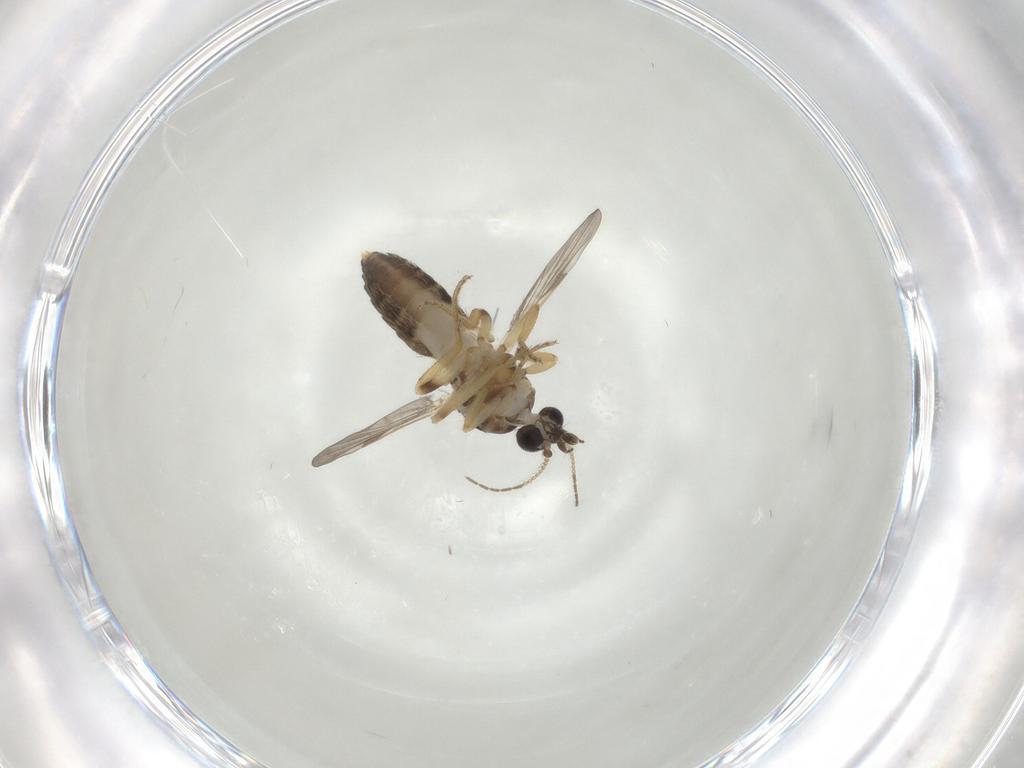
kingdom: Animalia
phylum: Arthropoda
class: Insecta
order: Diptera
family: Ceratopogonidae
